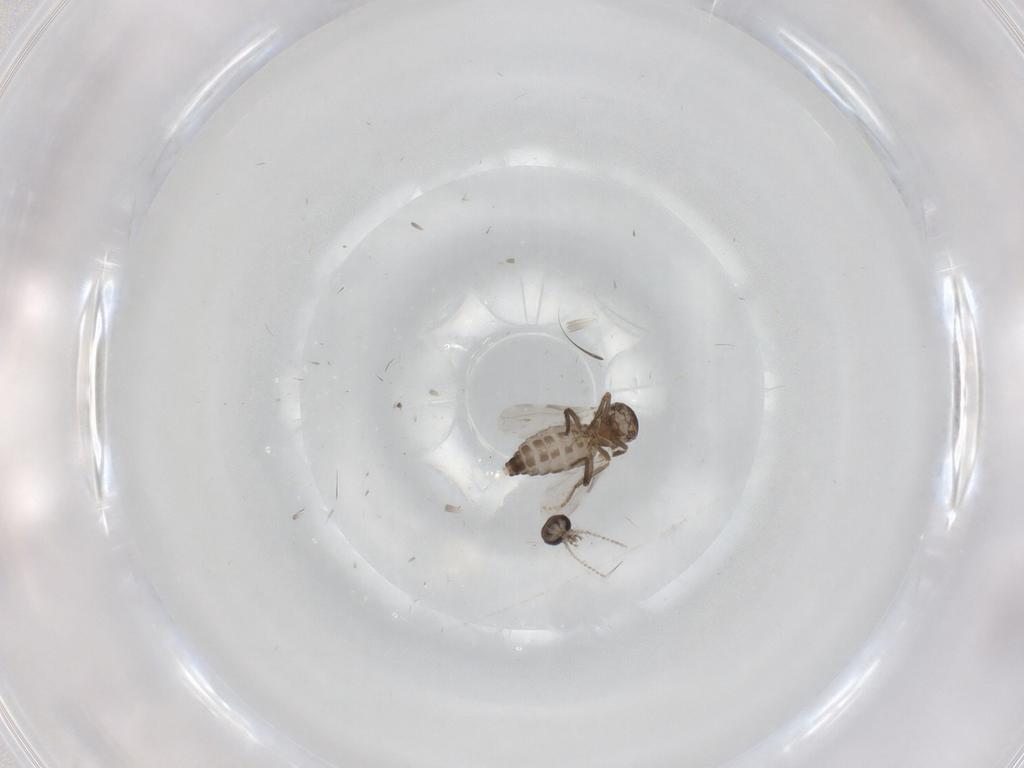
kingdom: Animalia
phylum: Arthropoda
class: Insecta
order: Diptera
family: Ceratopogonidae
